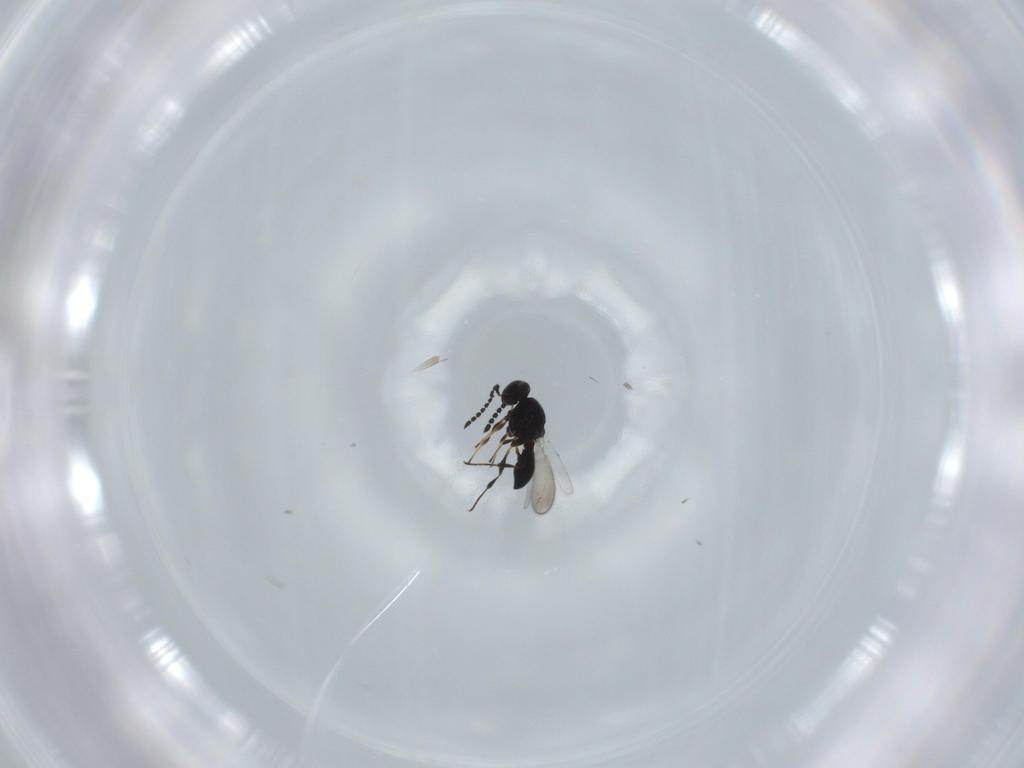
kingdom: Animalia
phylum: Arthropoda
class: Insecta
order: Hymenoptera
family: Platygastridae
